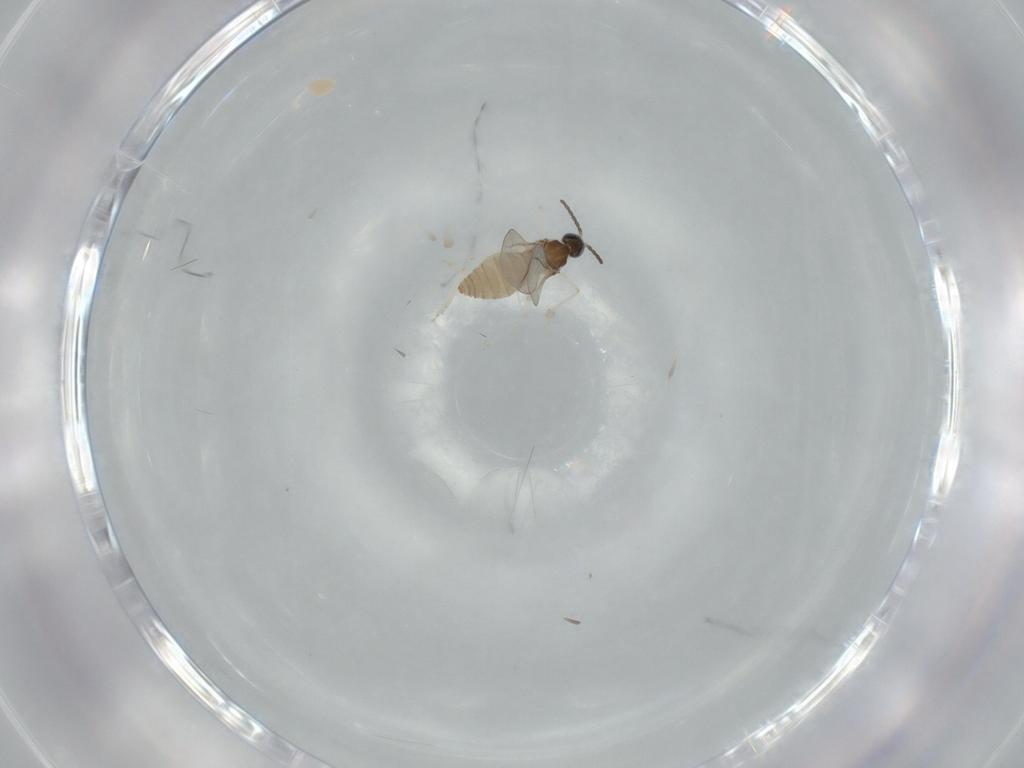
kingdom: Animalia
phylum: Arthropoda
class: Insecta
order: Diptera
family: Cecidomyiidae
